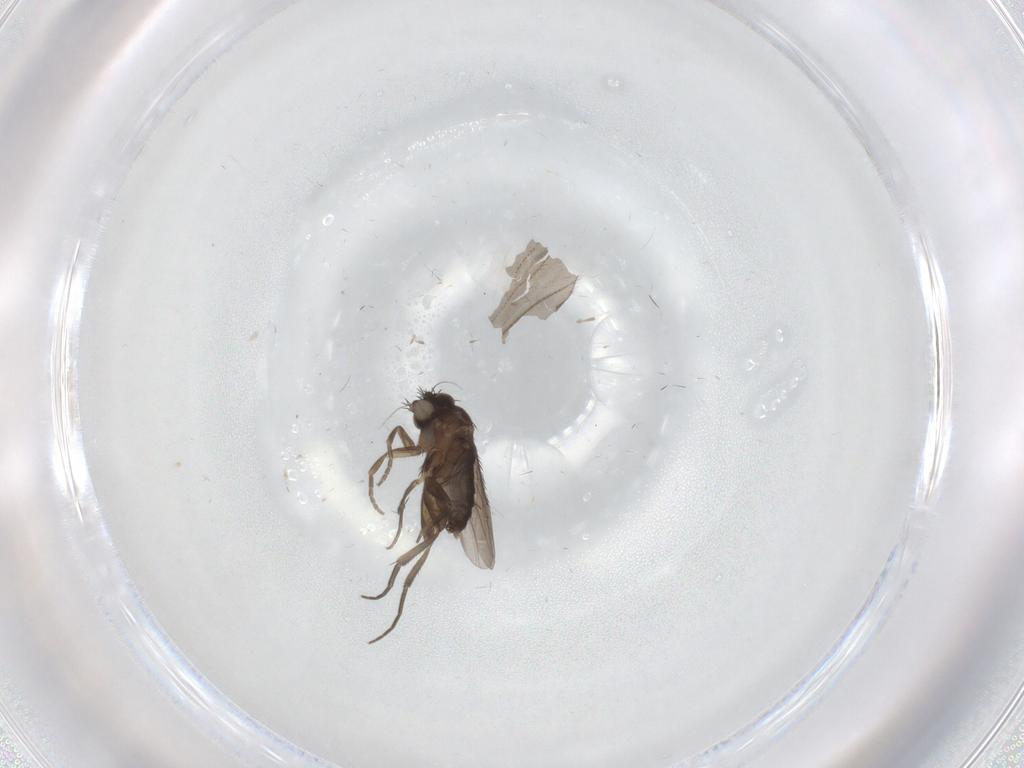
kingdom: Animalia
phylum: Arthropoda
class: Insecta
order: Diptera
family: Phoridae
